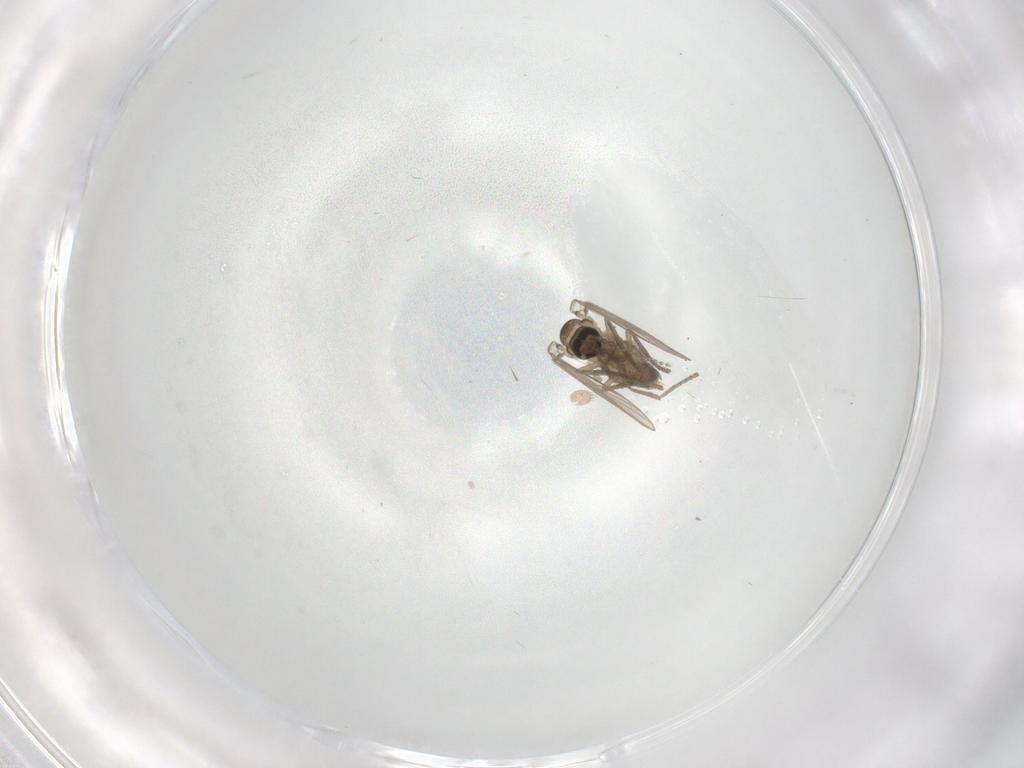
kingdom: Animalia
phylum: Arthropoda
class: Insecta
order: Diptera
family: Psychodidae
